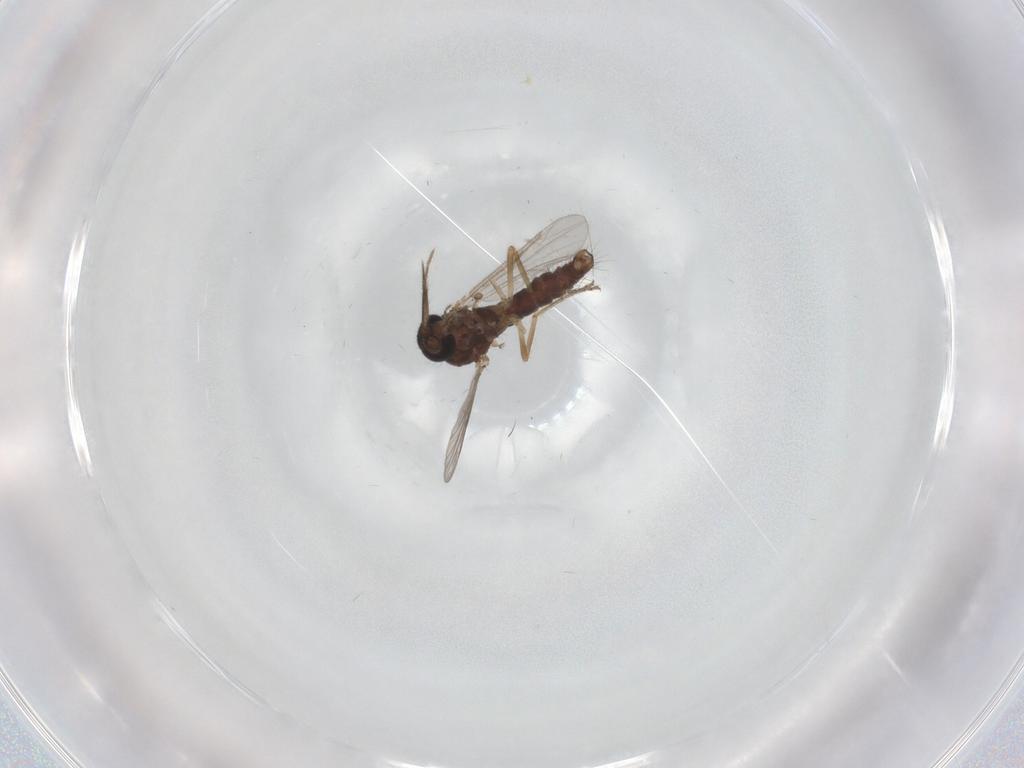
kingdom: Animalia
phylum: Arthropoda
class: Insecta
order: Diptera
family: Ceratopogonidae
